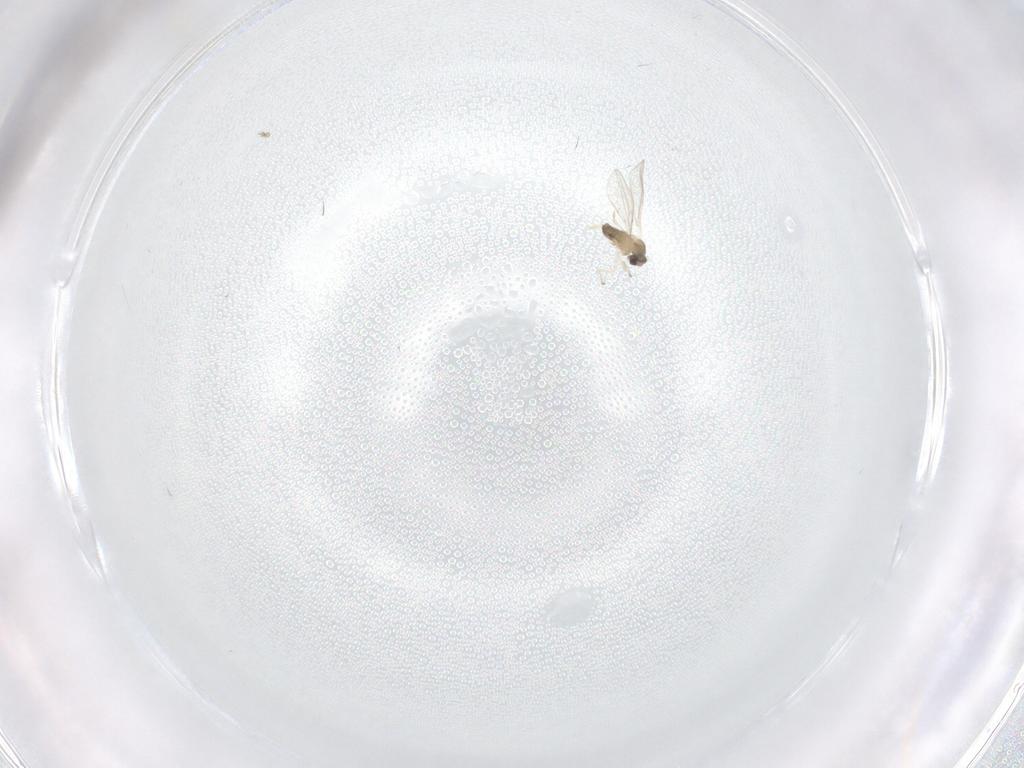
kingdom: Animalia
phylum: Arthropoda
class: Insecta
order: Diptera
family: Cecidomyiidae
